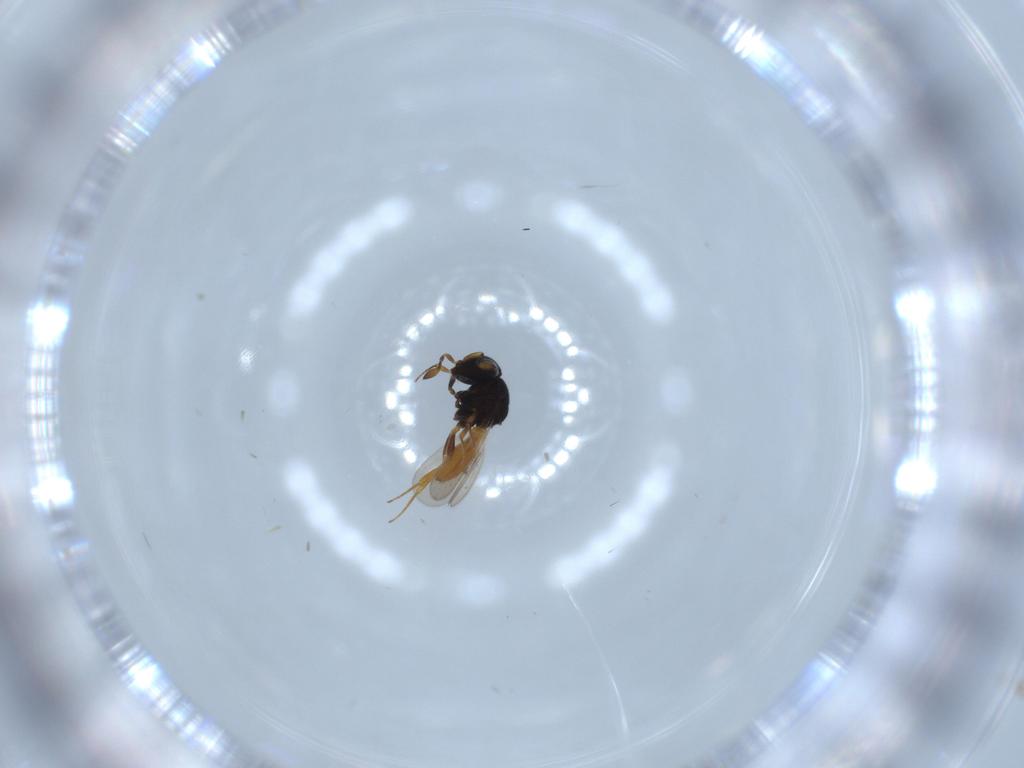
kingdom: Animalia
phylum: Arthropoda
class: Insecta
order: Hymenoptera
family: Scelionidae
